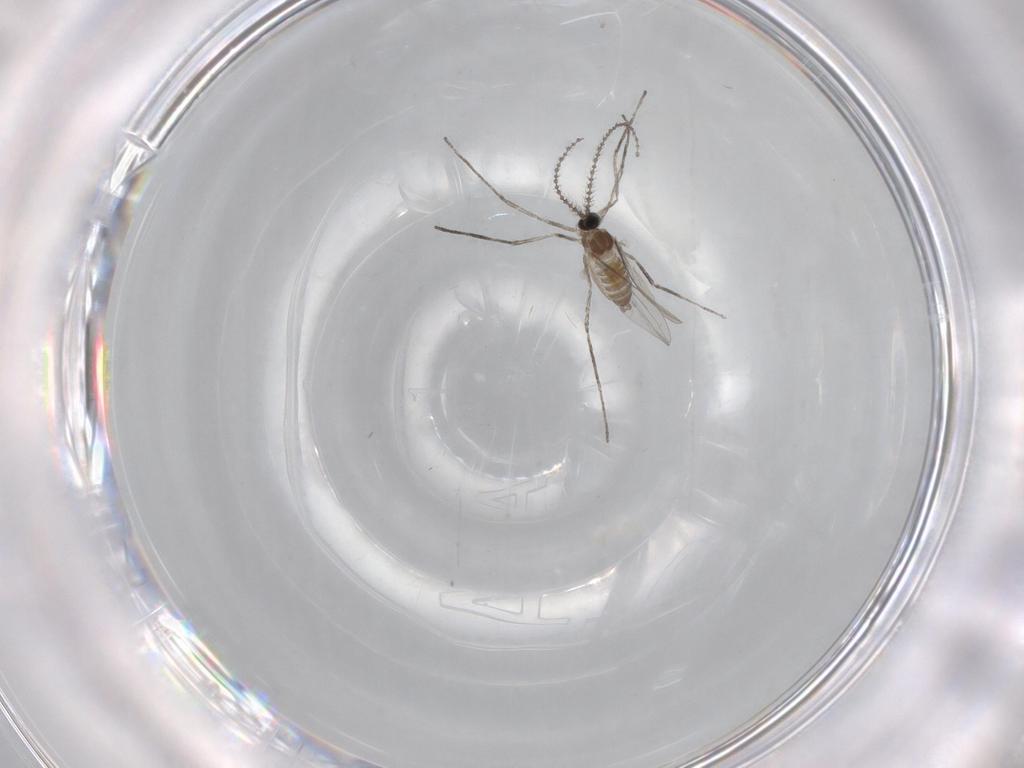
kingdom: Animalia
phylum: Arthropoda
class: Insecta
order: Diptera
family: Cecidomyiidae
